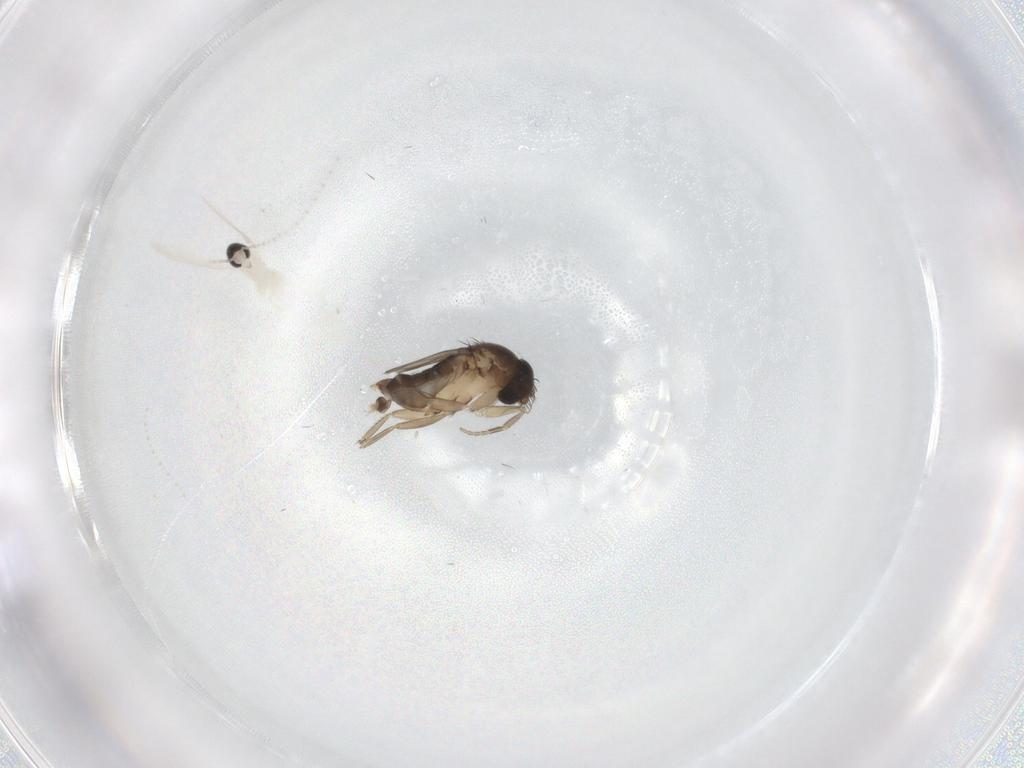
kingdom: Animalia
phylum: Arthropoda
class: Insecta
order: Diptera
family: Phoridae
